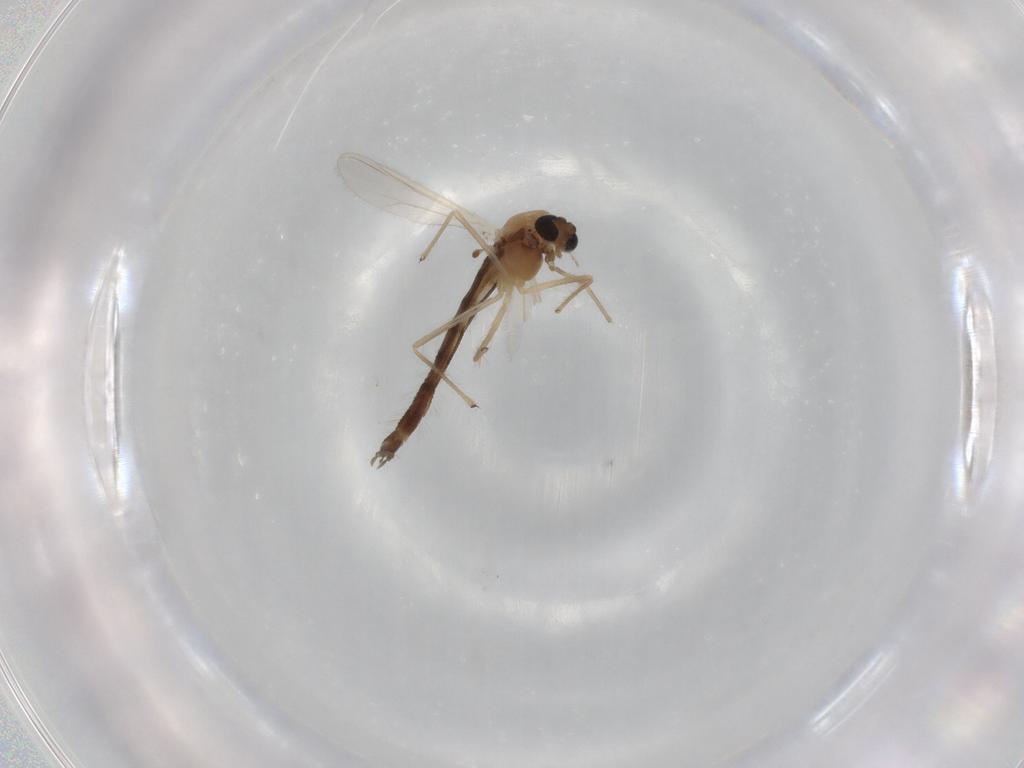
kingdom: Animalia
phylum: Arthropoda
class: Insecta
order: Diptera
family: Chironomidae
